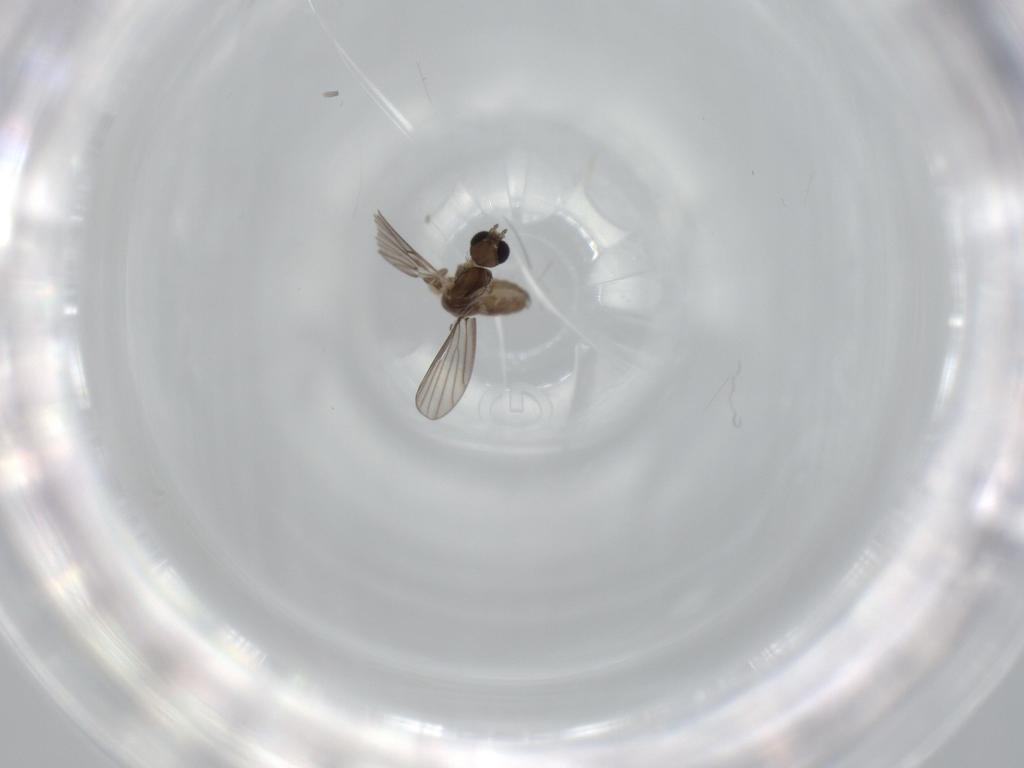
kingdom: Animalia
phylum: Arthropoda
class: Insecta
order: Diptera
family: Psychodidae
